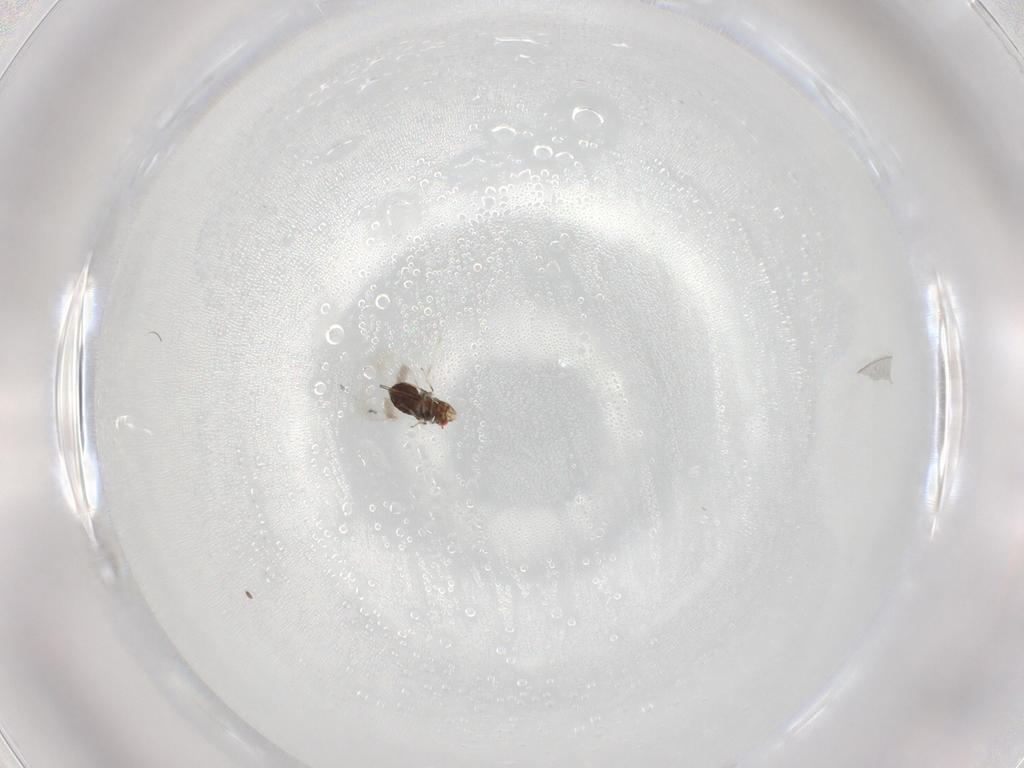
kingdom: Animalia
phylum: Arthropoda
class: Insecta
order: Hymenoptera
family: Azotidae
